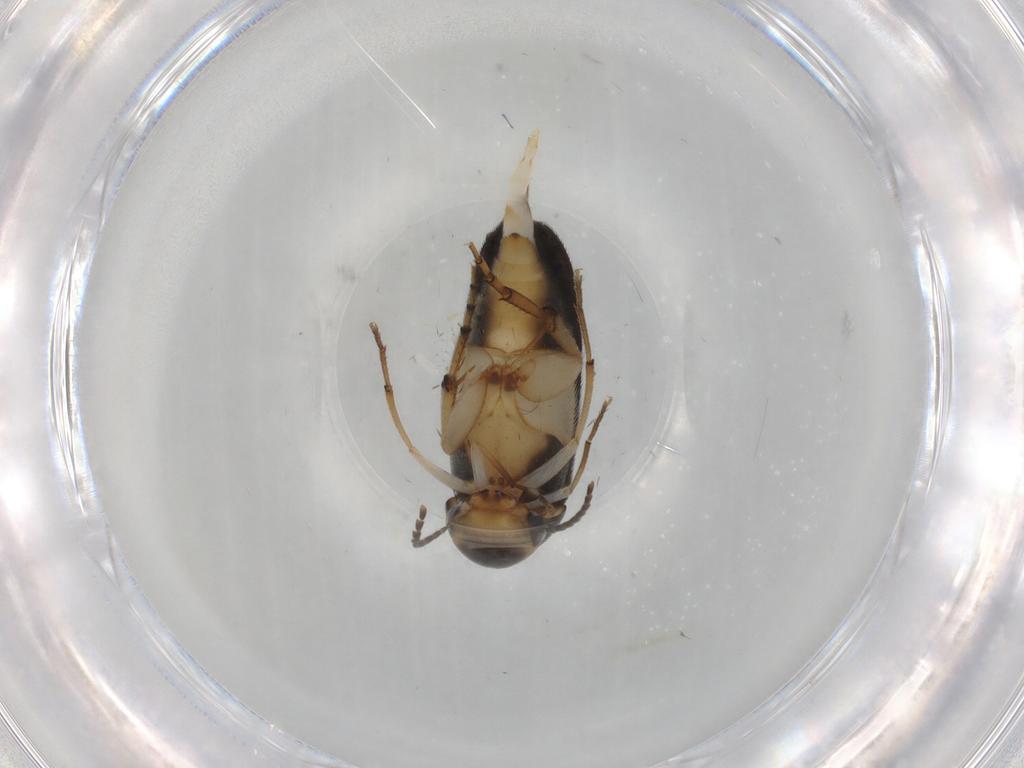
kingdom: Animalia
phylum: Arthropoda
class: Insecta
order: Coleoptera
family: Mordellidae
